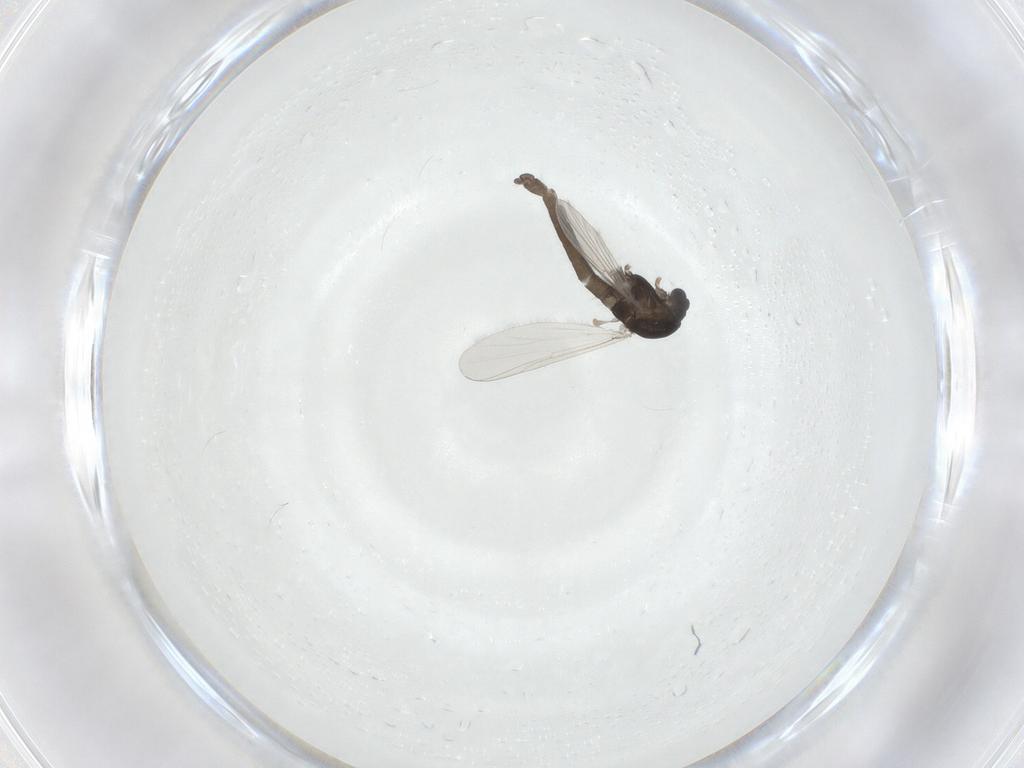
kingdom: Animalia
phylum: Arthropoda
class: Insecta
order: Diptera
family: Chironomidae
